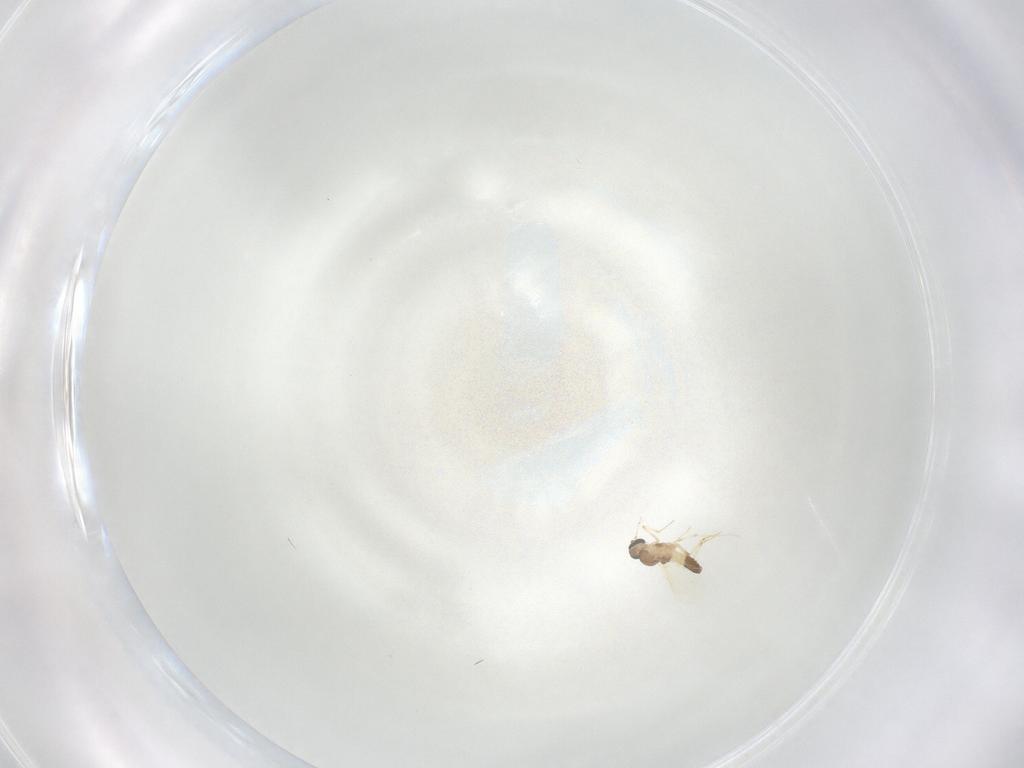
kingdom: Animalia
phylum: Arthropoda
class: Insecta
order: Diptera
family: Ceratopogonidae
